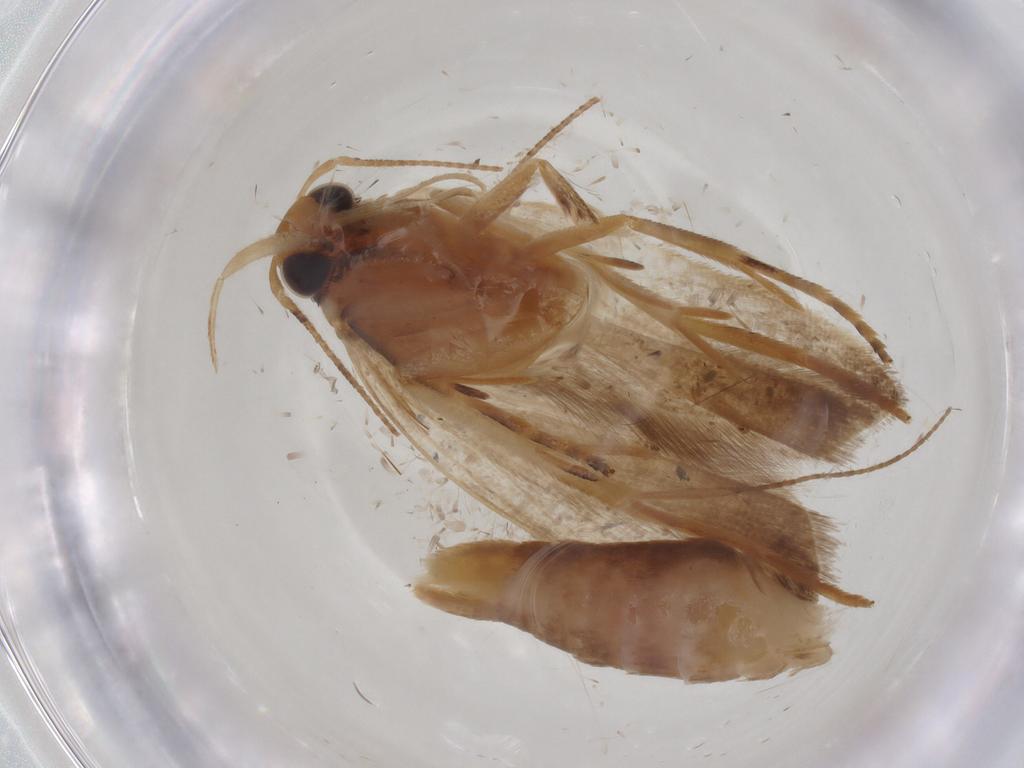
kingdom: Animalia
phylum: Arthropoda
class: Insecta
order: Lepidoptera
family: Gelechiidae
